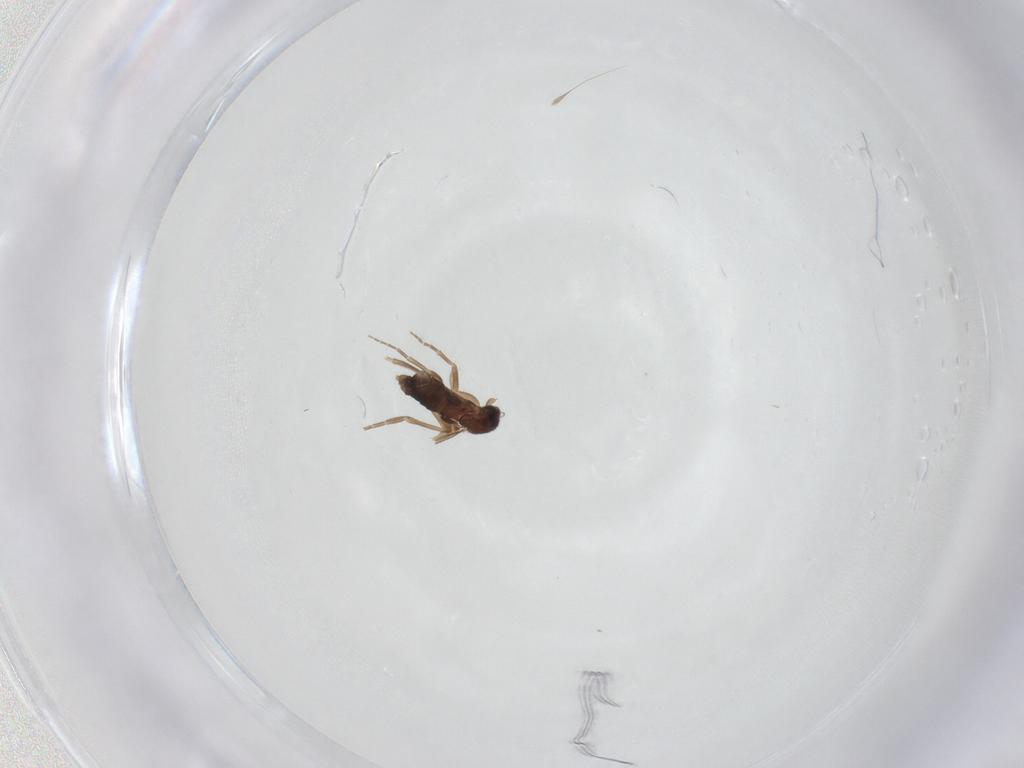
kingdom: Animalia
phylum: Arthropoda
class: Insecta
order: Diptera
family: Phoridae
